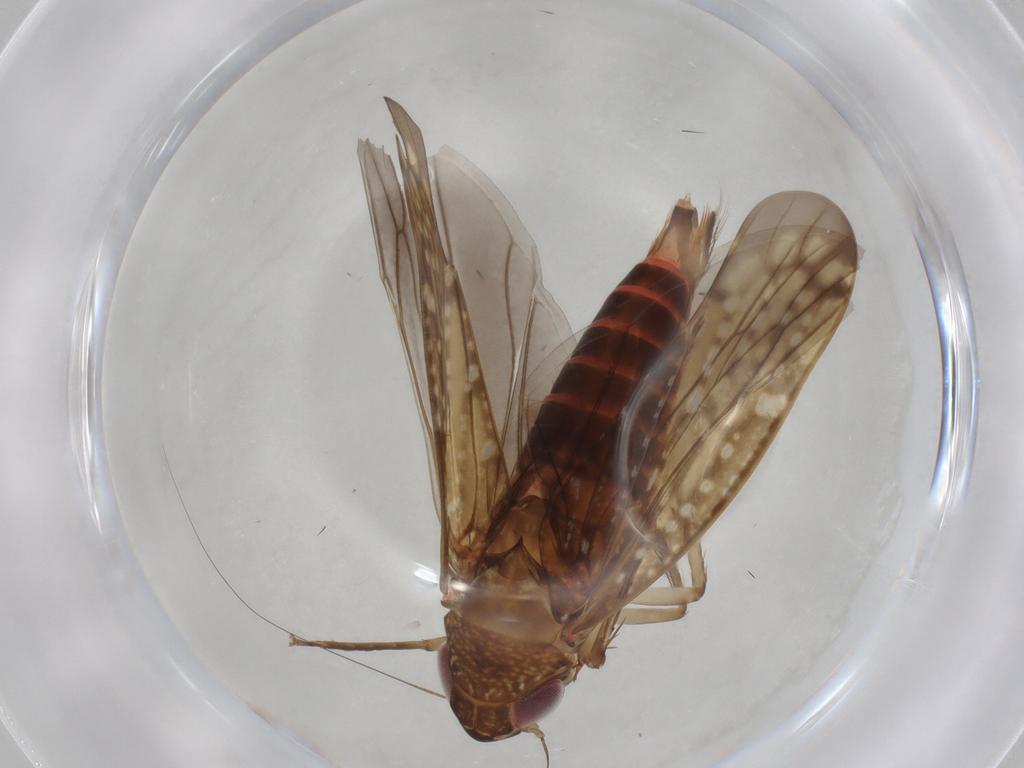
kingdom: Animalia
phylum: Arthropoda
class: Insecta
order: Hemiptera
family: Cicadellidae
